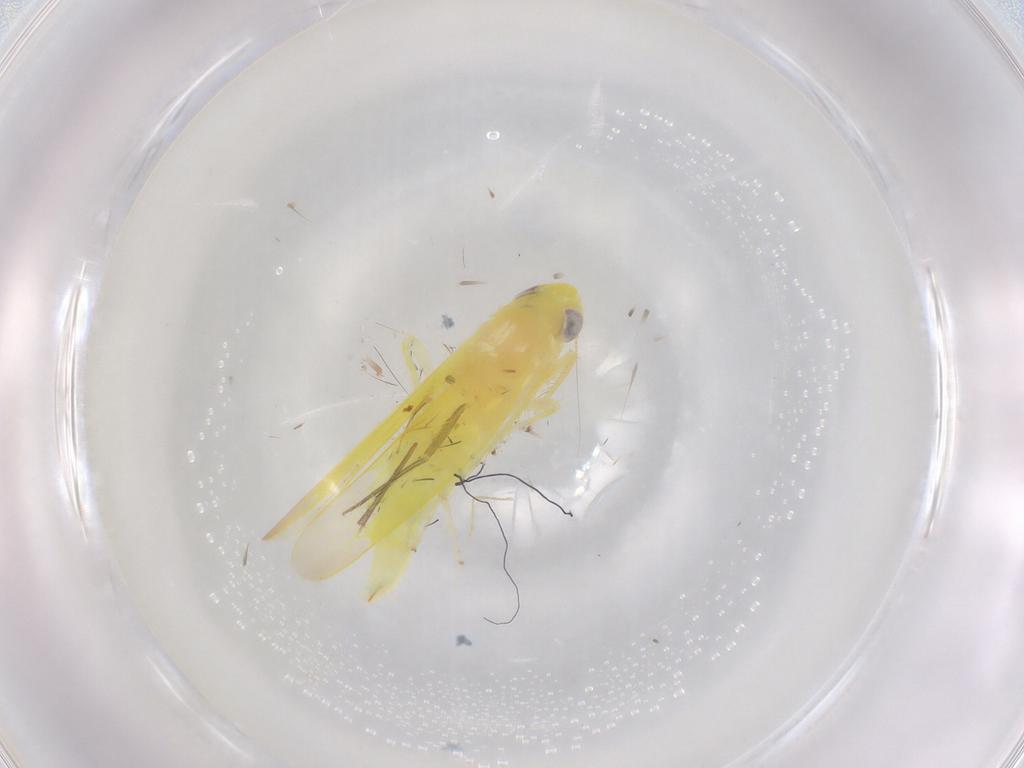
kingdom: Animalia
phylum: Arthropoda
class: Insecta
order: Hemiptera
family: Cicadellidae
